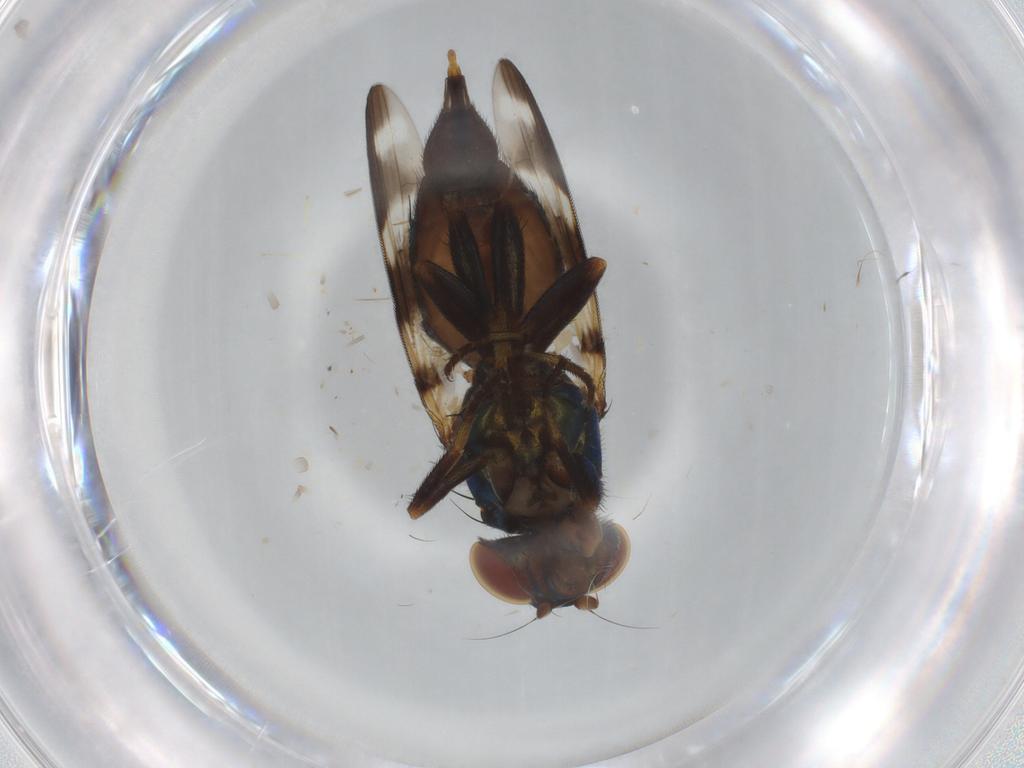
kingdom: Animalia
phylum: Arthropoda
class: Insecta
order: Diptera
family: Ulidiidae
